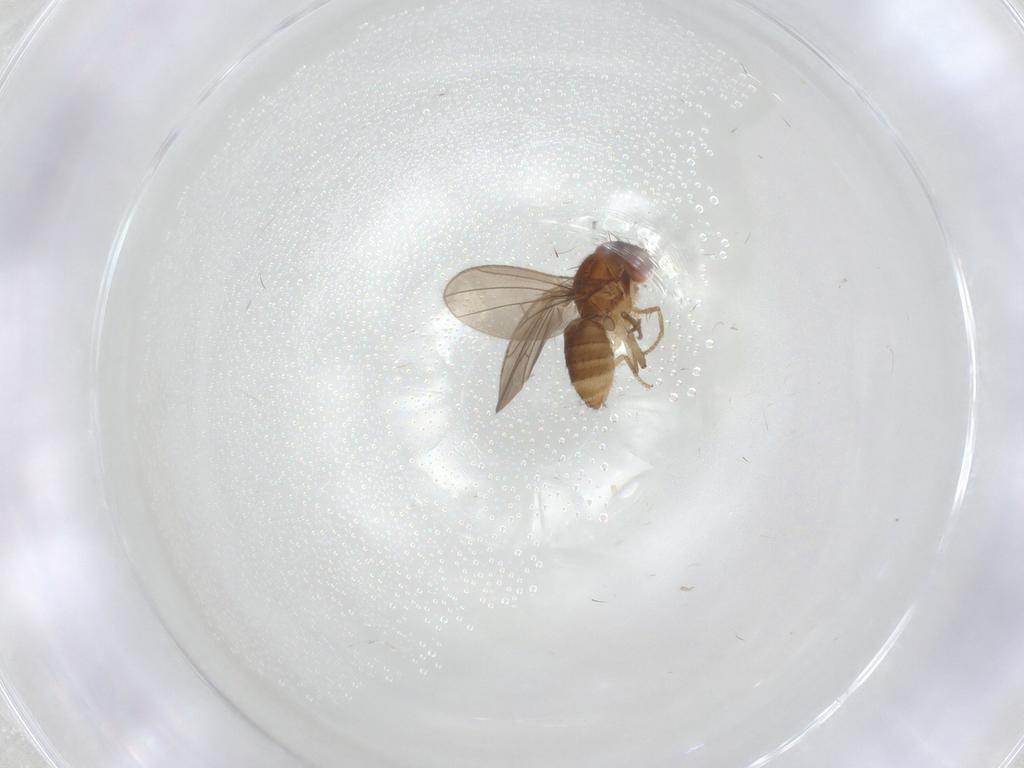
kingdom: Animalia
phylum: Arthropoda
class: Insecta
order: Diptera
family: Drosophilidae
